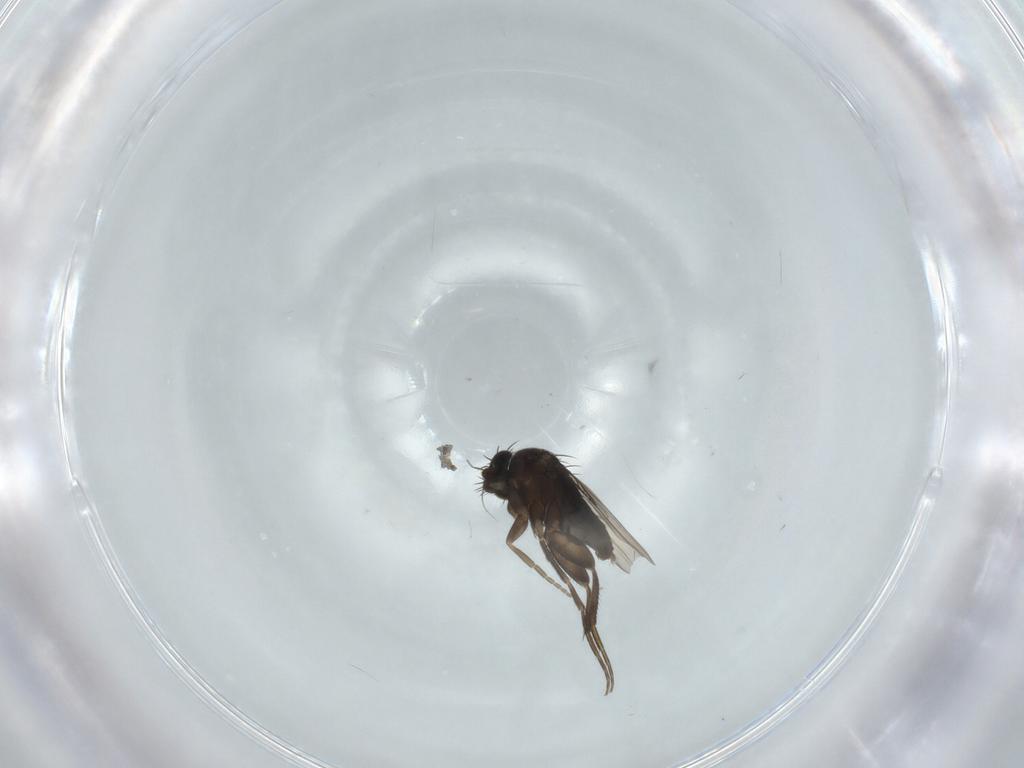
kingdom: Animalia
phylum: Arthropoda
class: Insecta
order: Diptera
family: Phoridae
